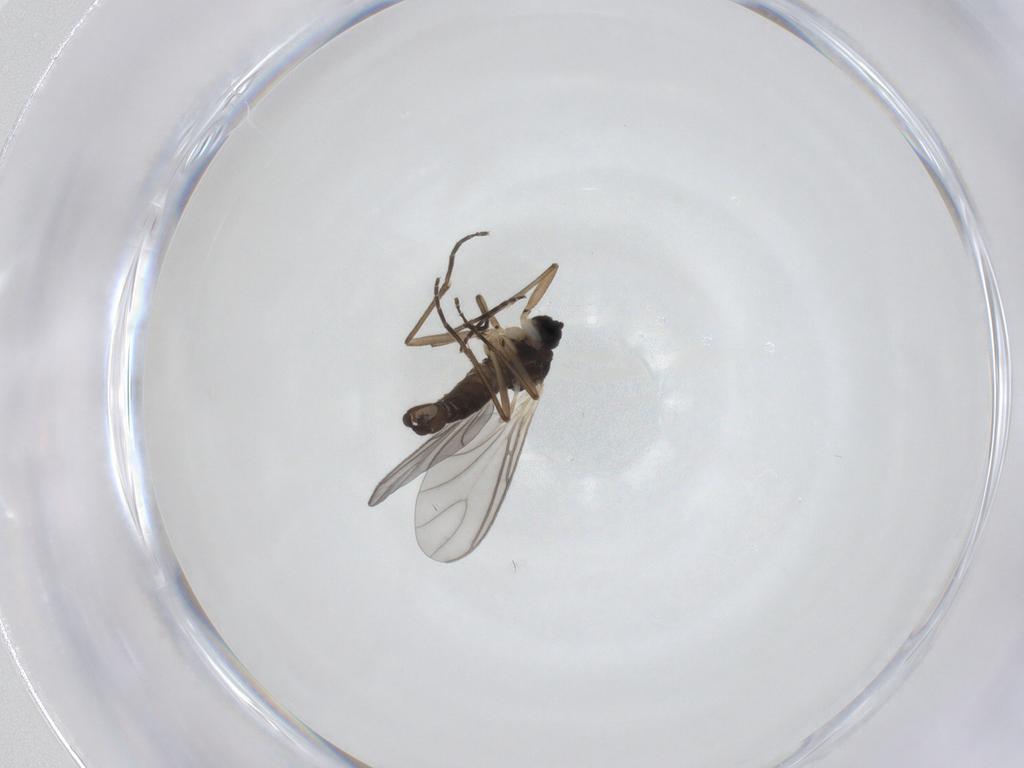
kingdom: Animalia
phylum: Arthropoda
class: Insecta
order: Diptera
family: Sciaridae
